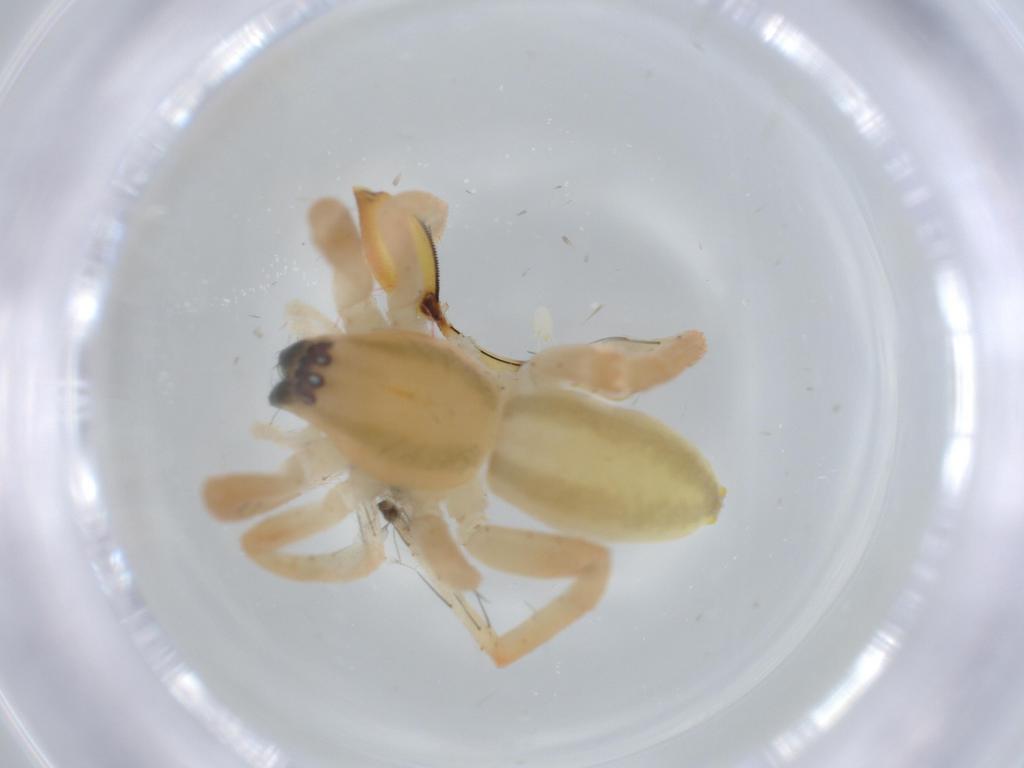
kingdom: Animalia
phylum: Arthropoda
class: Arachnida
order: Araneae
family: Anyphaenidae
